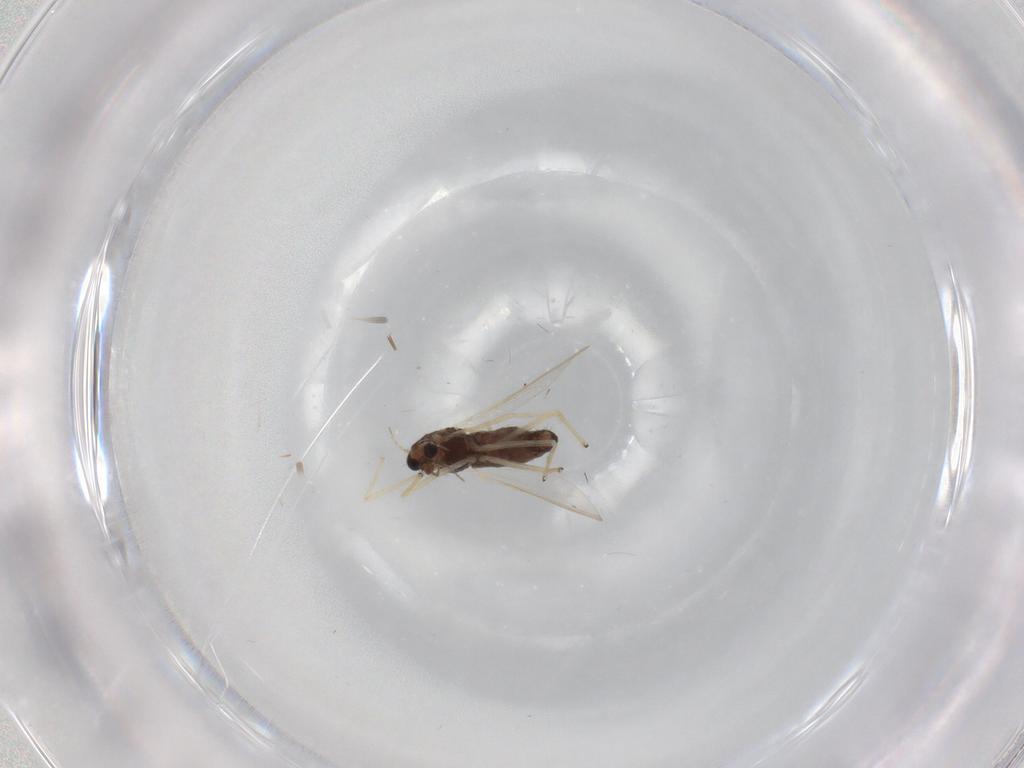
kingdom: Animalia
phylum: Arthropoda
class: Insecta
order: Diptera
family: Chironomidae
